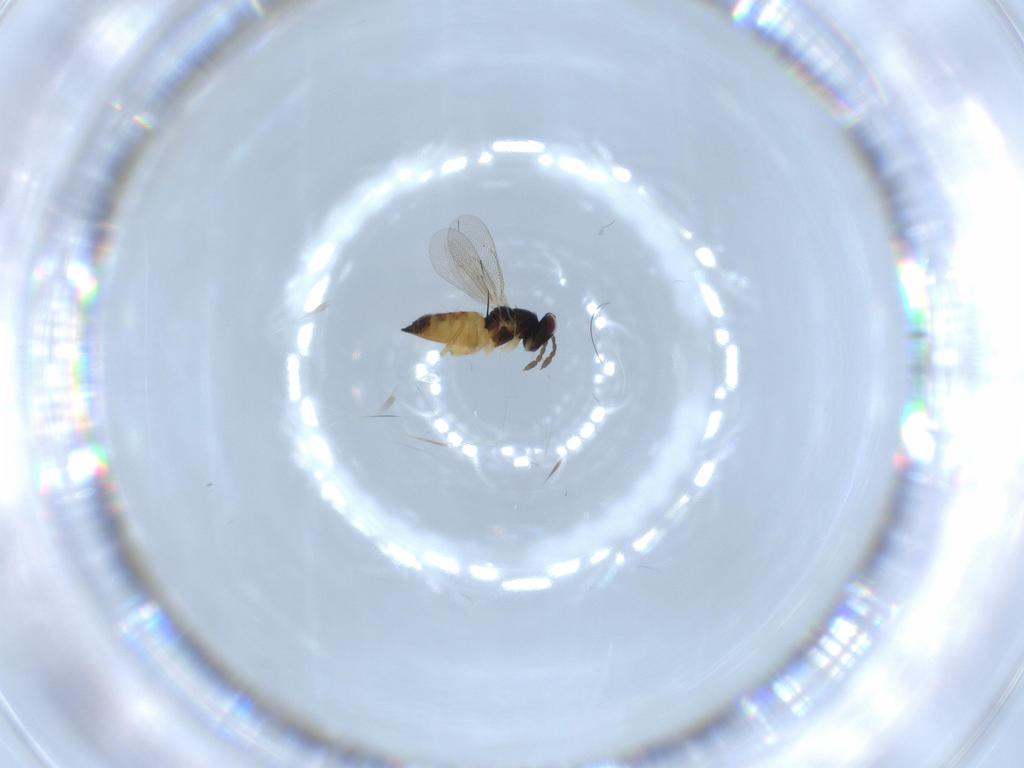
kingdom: Animalia
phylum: Arthropoda
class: Insecta
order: Hymenoptera
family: Eulophidae
